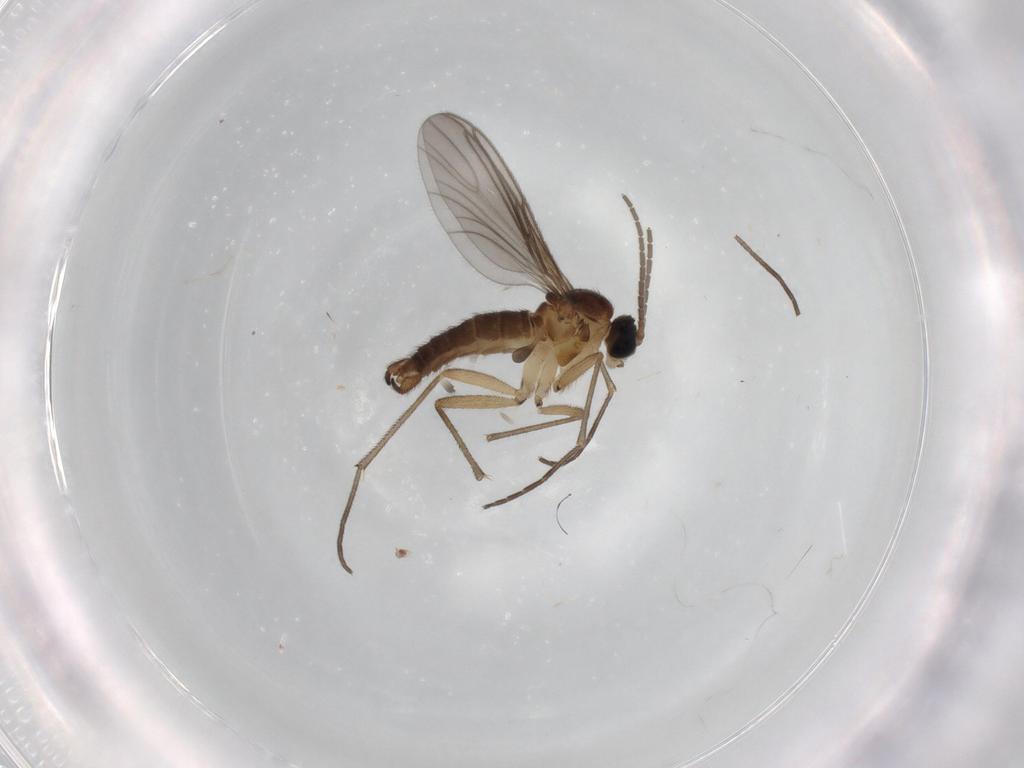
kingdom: Animalia
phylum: Arthropoda
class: Insecta
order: Diptera
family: Sciaridae
